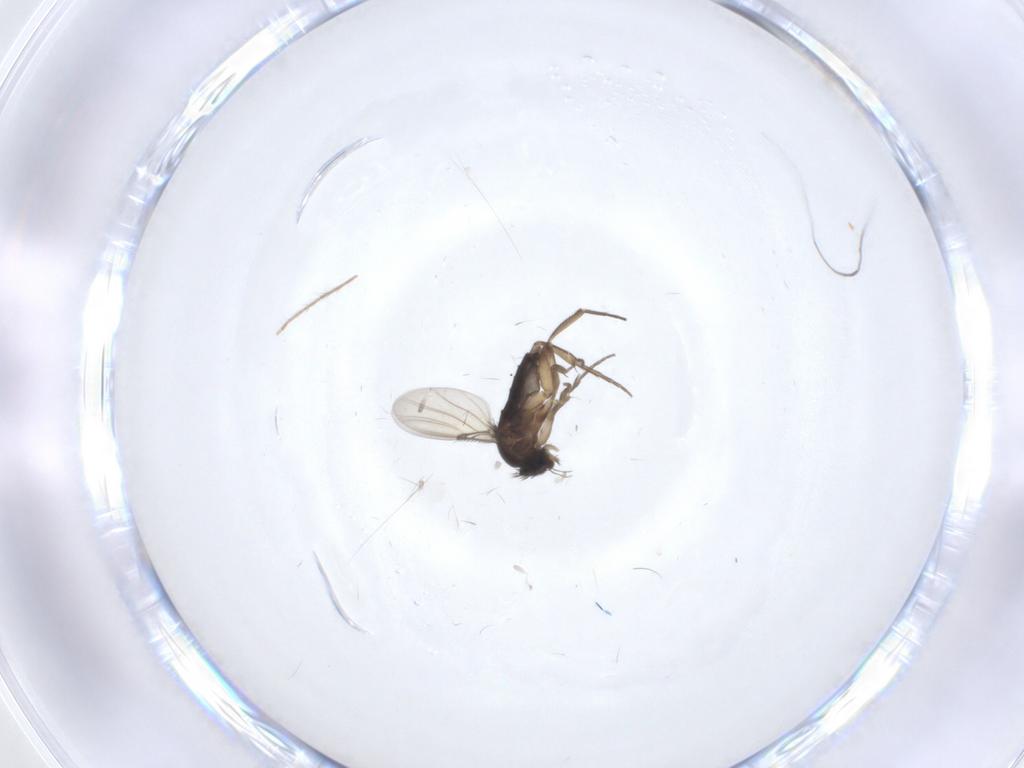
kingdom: Animalia
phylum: Arthropoda
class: Insecta
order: Diptera
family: Phoridae
